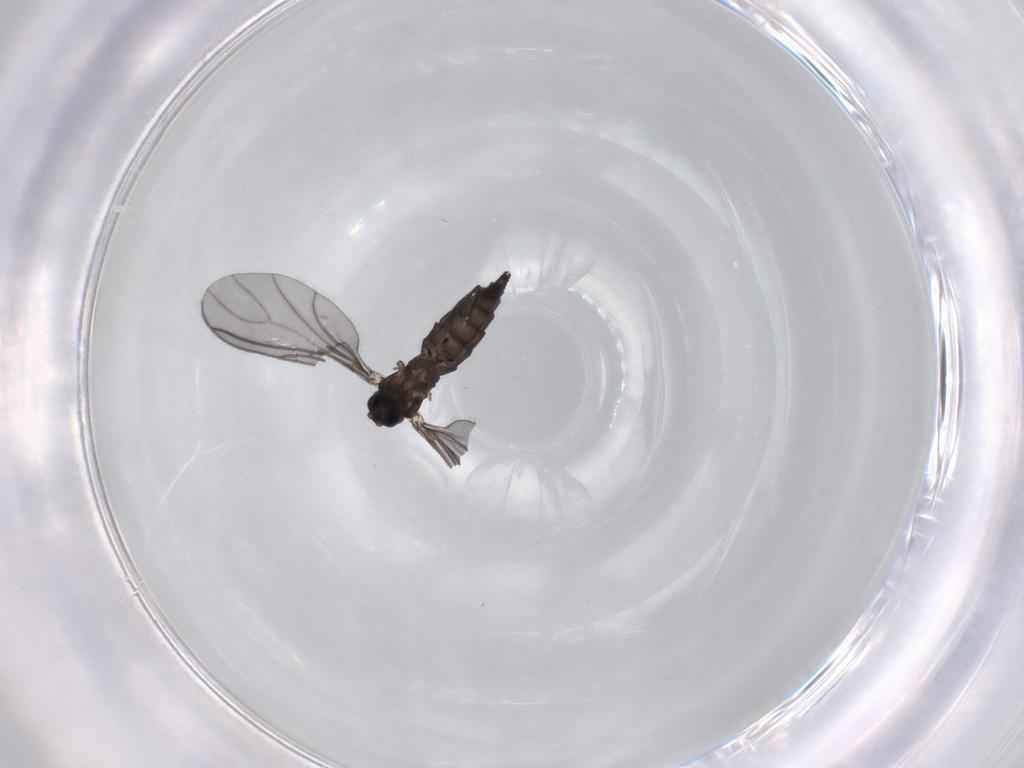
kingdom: Animalia
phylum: Arthropoda
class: Insecta
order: Diptera
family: Sciaridae
